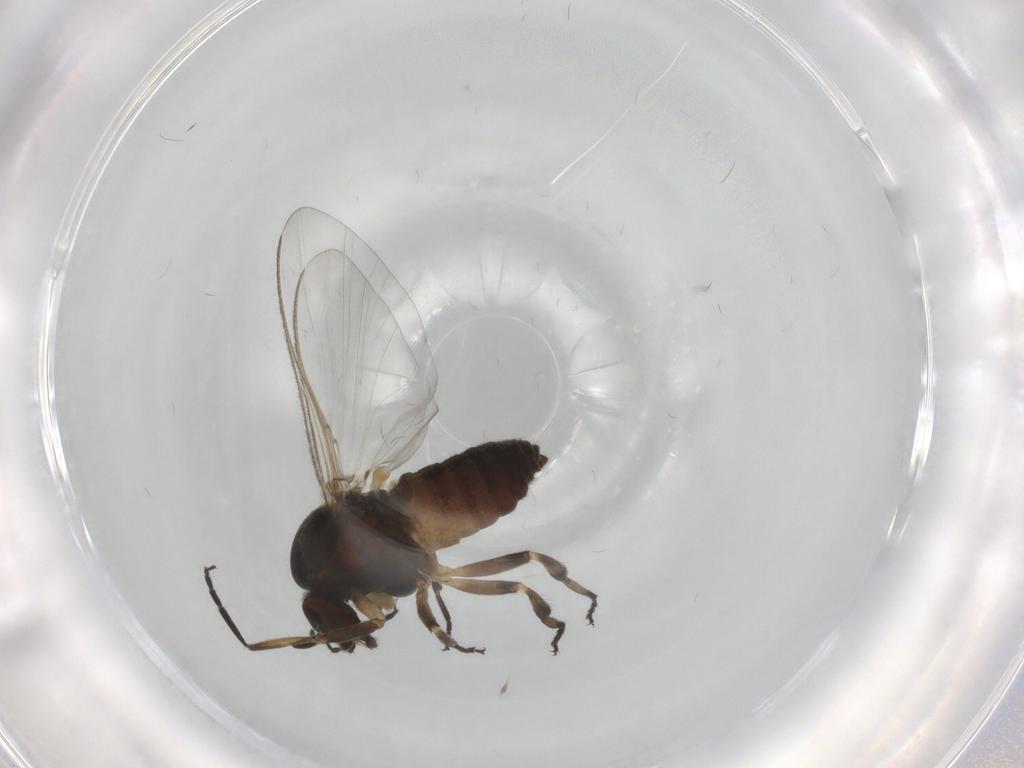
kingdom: Animalia
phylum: Arthropoda
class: Insecta
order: Diptera
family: Chironomidae
